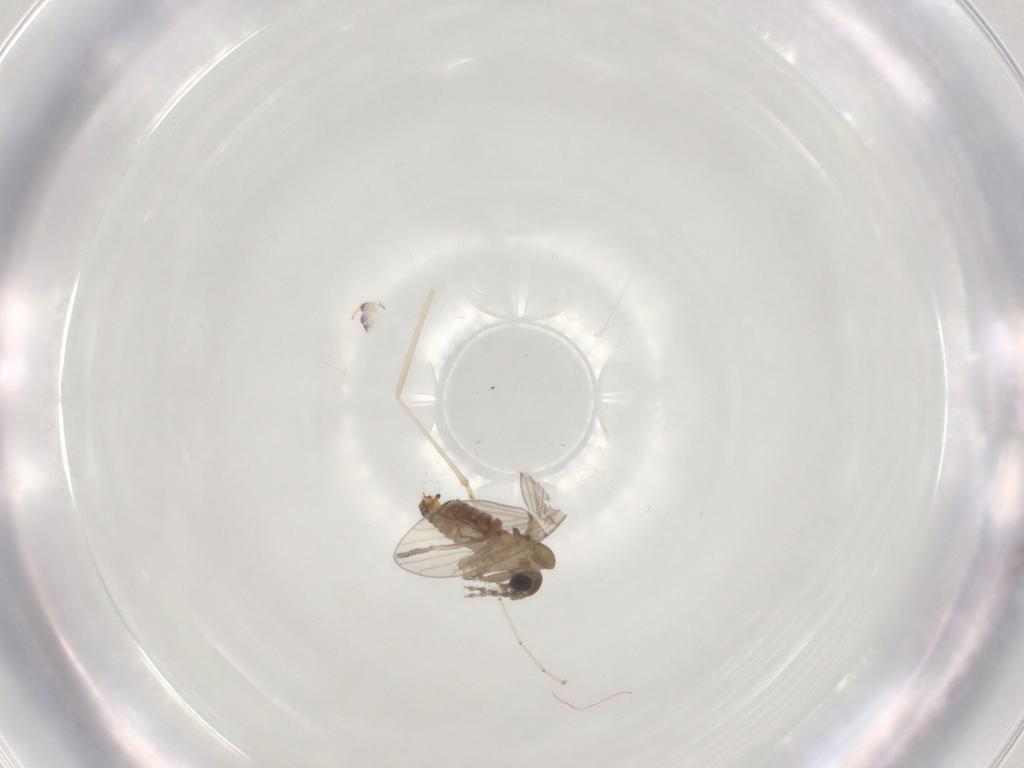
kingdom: Animalia
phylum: Arthropoda
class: Insecta
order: Diptera
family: Cecidomyiidae
